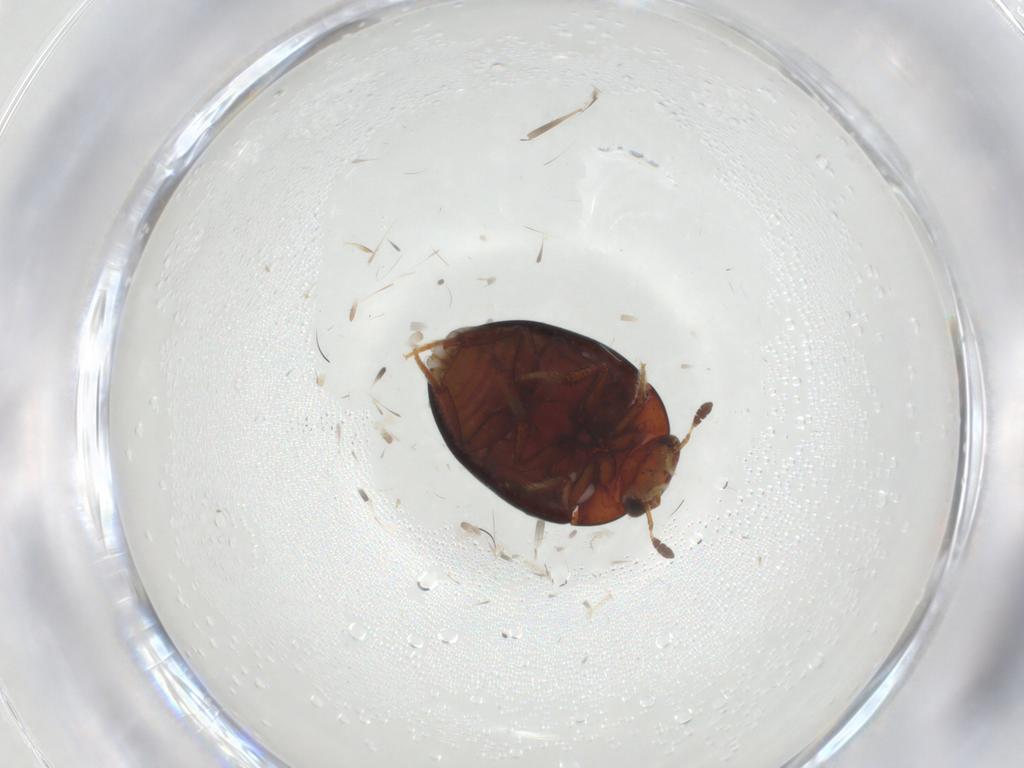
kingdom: Animalia
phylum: Arthropoda
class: Insecta
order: Coleoptera
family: Hydrophilidae
